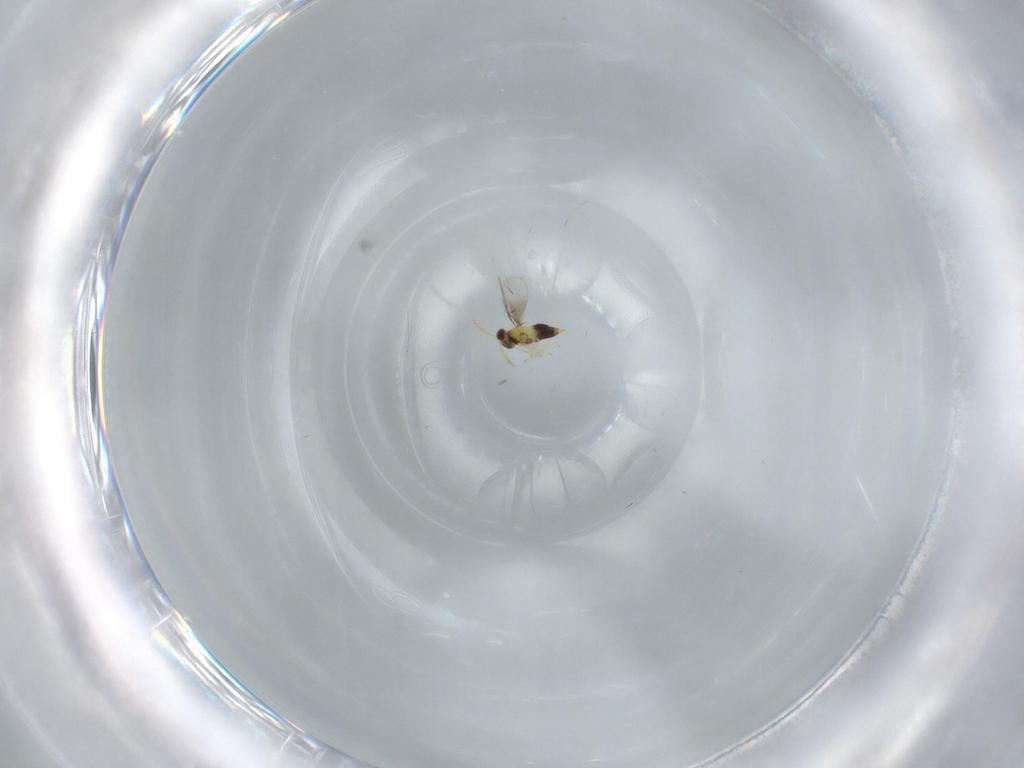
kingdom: Animalia
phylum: Arthropoda
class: Insecta
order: Hymenoptera
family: Aphelinidae
